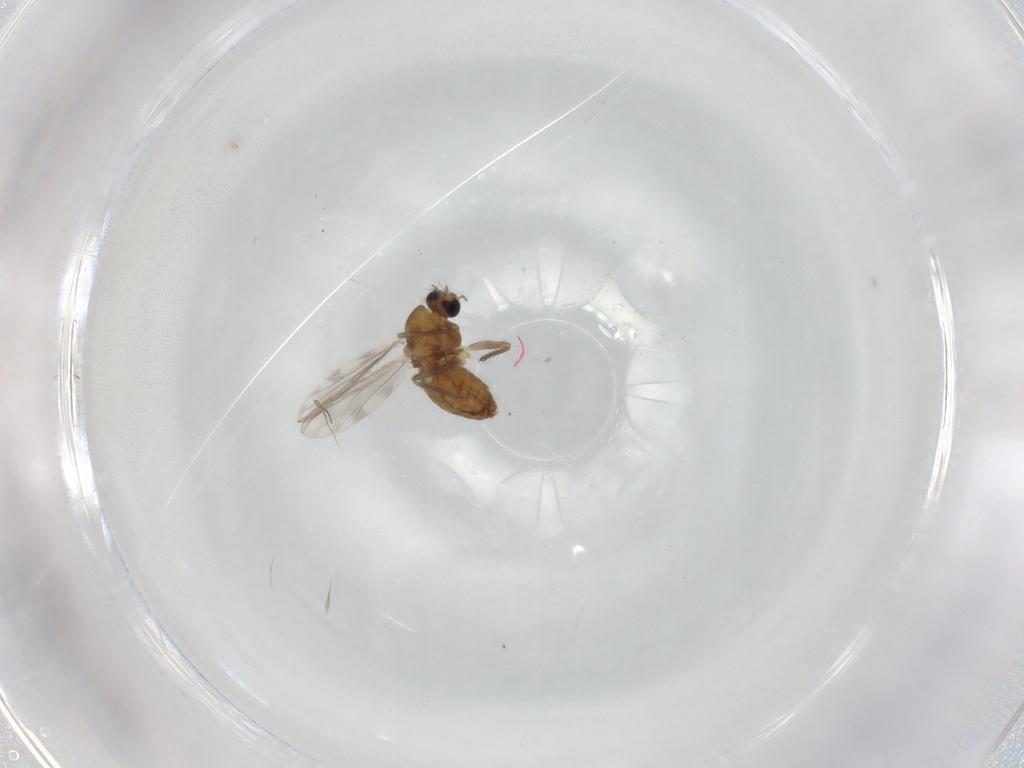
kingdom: Animalia
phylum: Arthropoda
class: Insecta
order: Diptera
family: Chironomidae
